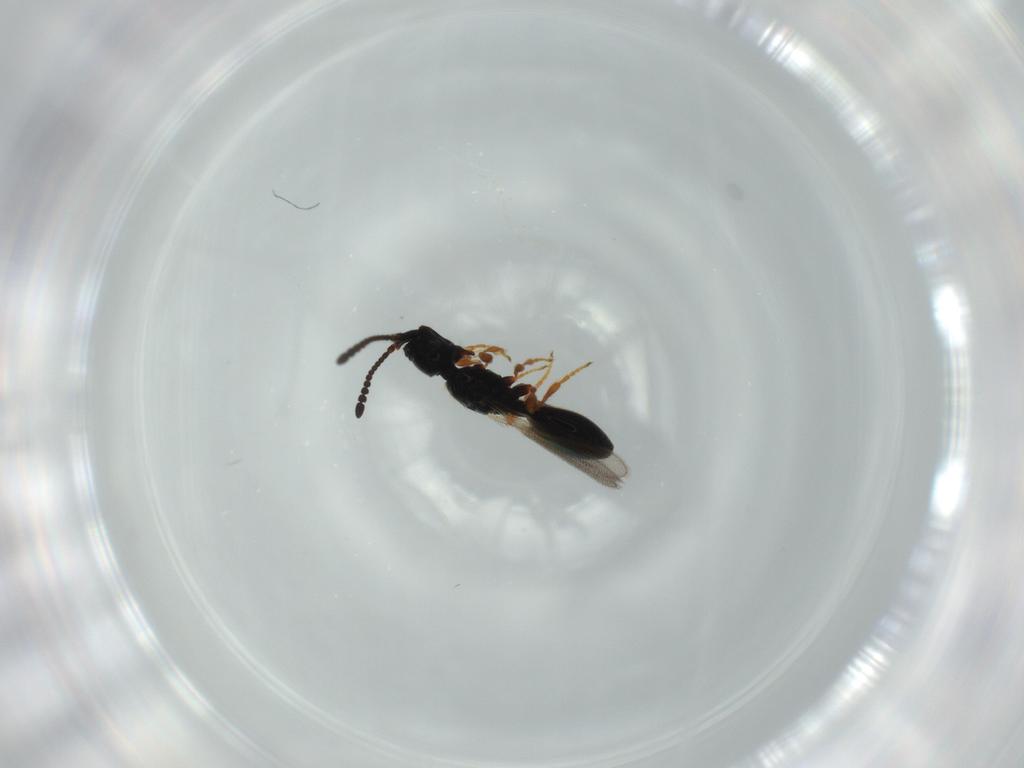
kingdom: Animalia
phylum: Arthropoda
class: Insecta
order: Hymenoptera
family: Diapriidae
